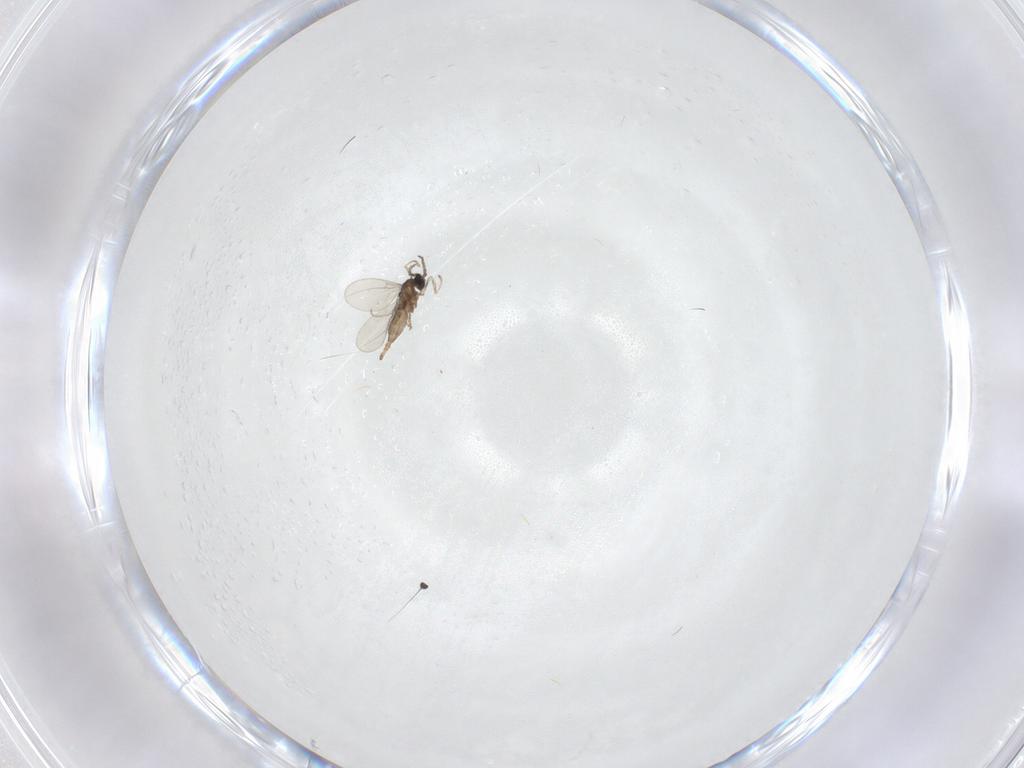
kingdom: Animalia
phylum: Arthropoda
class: Insecta
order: Diptera
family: Cecidomyiidae
